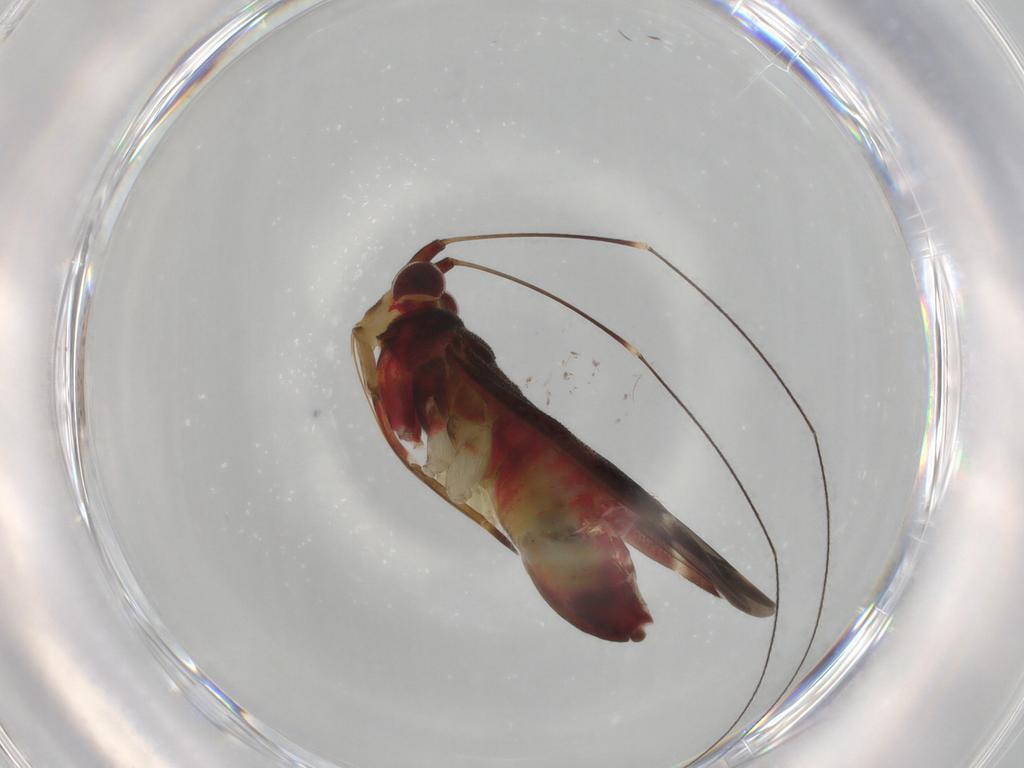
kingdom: Animalia
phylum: Arthropoda
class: Insecta
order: Hemiptera
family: Miridae
